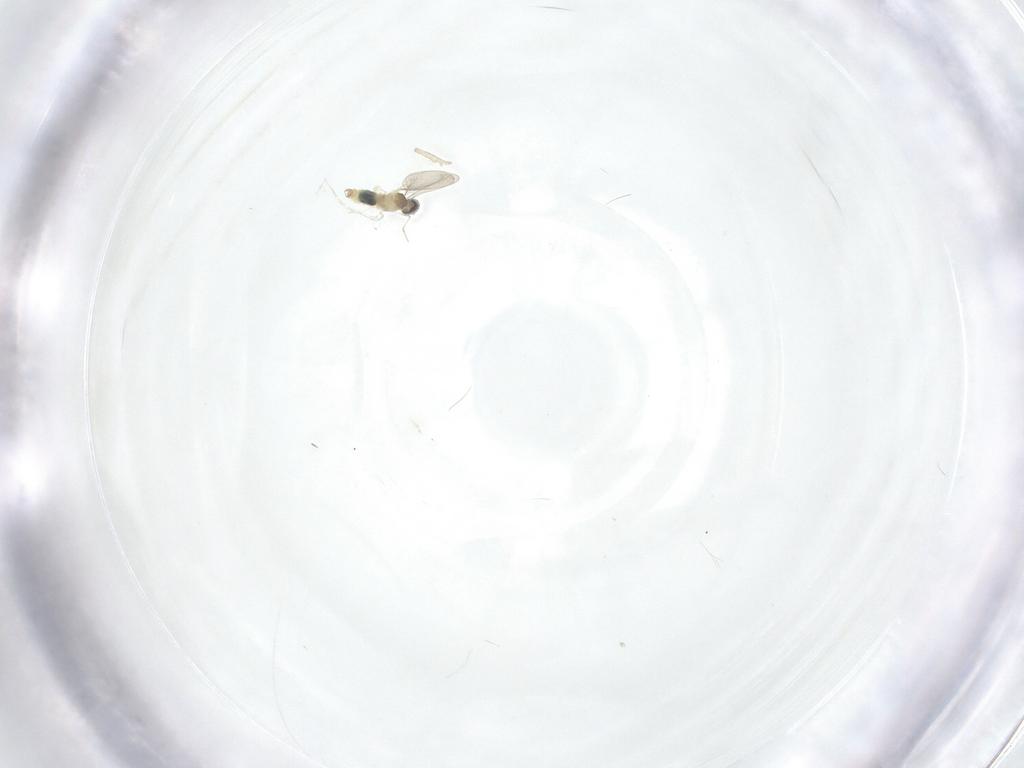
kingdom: Animalia
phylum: Arthropoda
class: Insecta
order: Diptera
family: Cecidomyiidae
